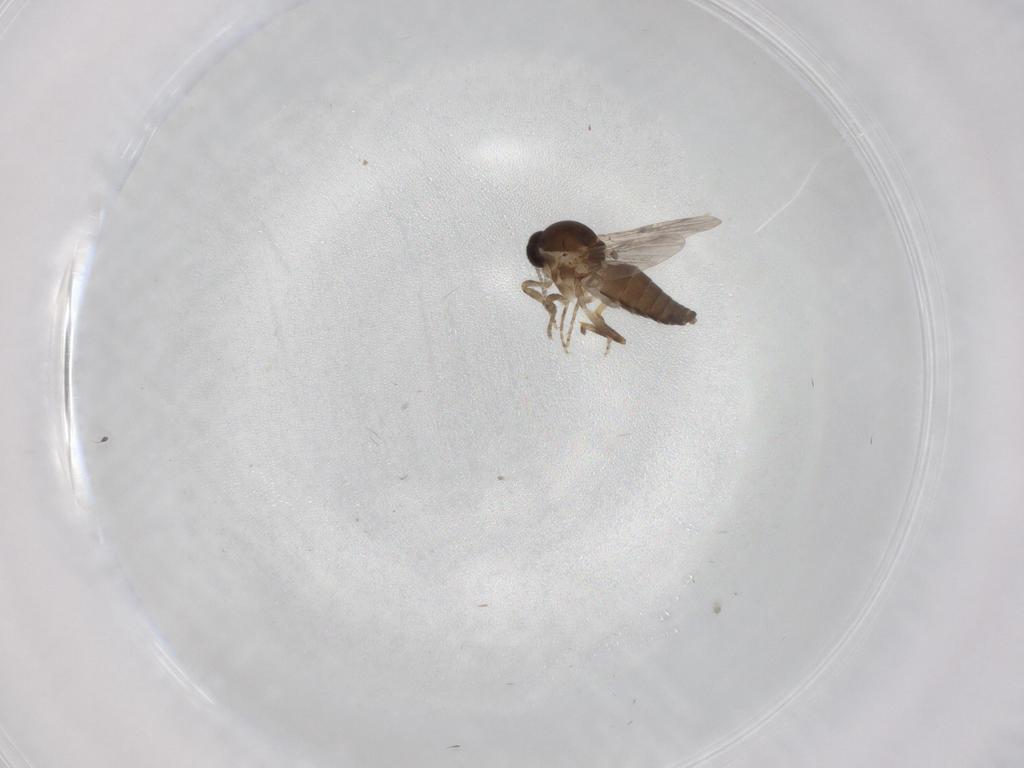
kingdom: Animalia
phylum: Arthropoda
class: Insecta
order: Diptera
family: Ceratopogonidae
